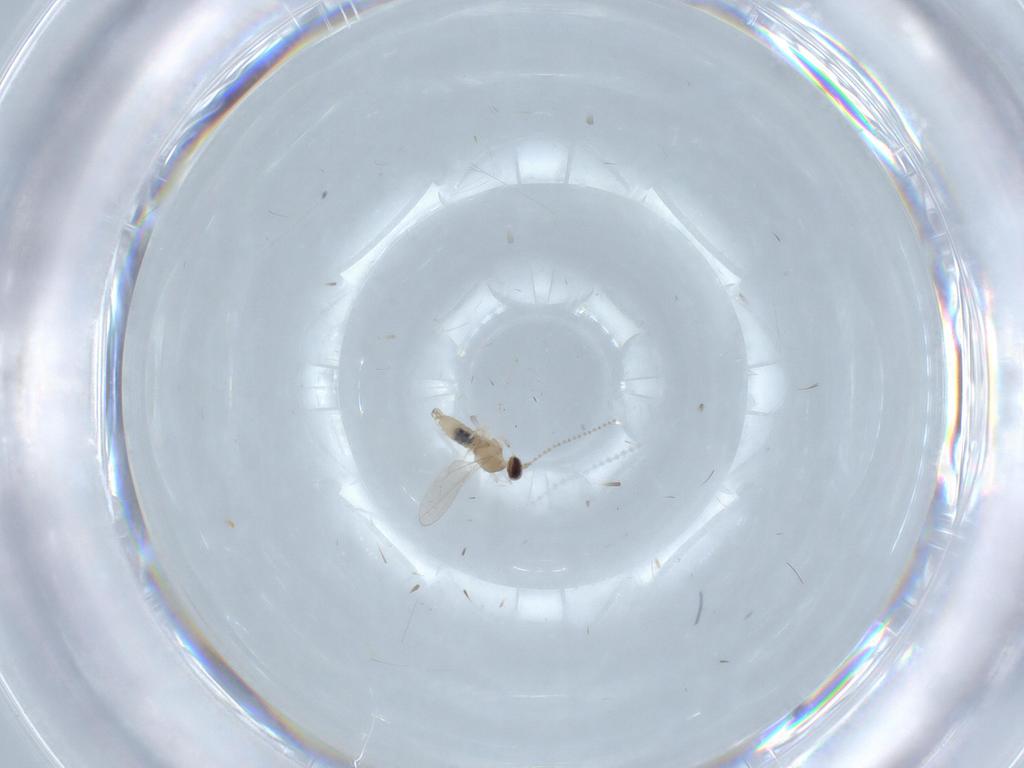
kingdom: Animalia
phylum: Arthropoda
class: Insecta
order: Diptera
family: Cecidomyiidae
